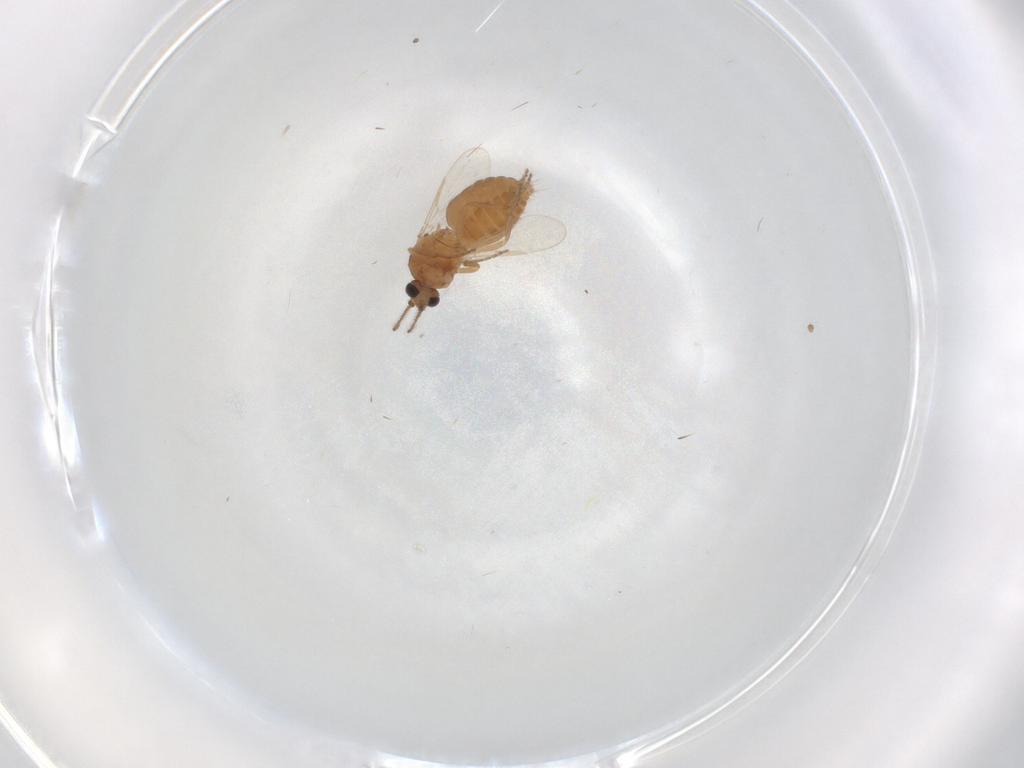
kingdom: Animalia
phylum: Arthropoda
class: Insecta
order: Diptera
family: Ceratopogonidae
